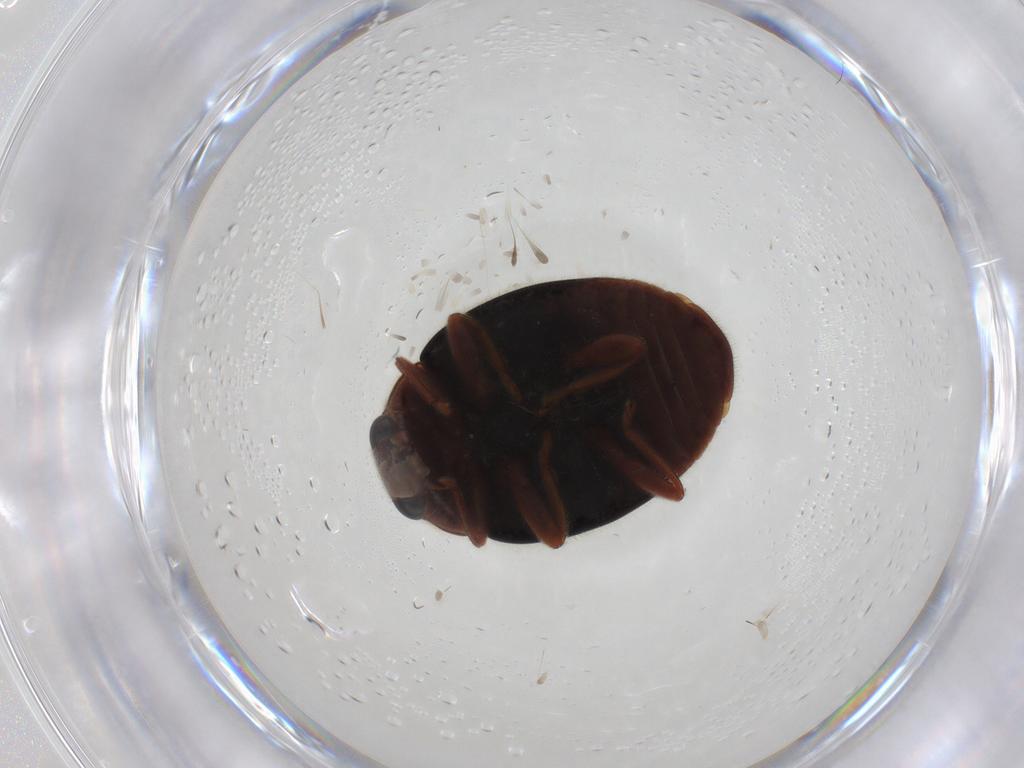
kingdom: Animalia
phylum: Arthropoda
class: Insecta
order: Coleoptera
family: Coccinellidae
